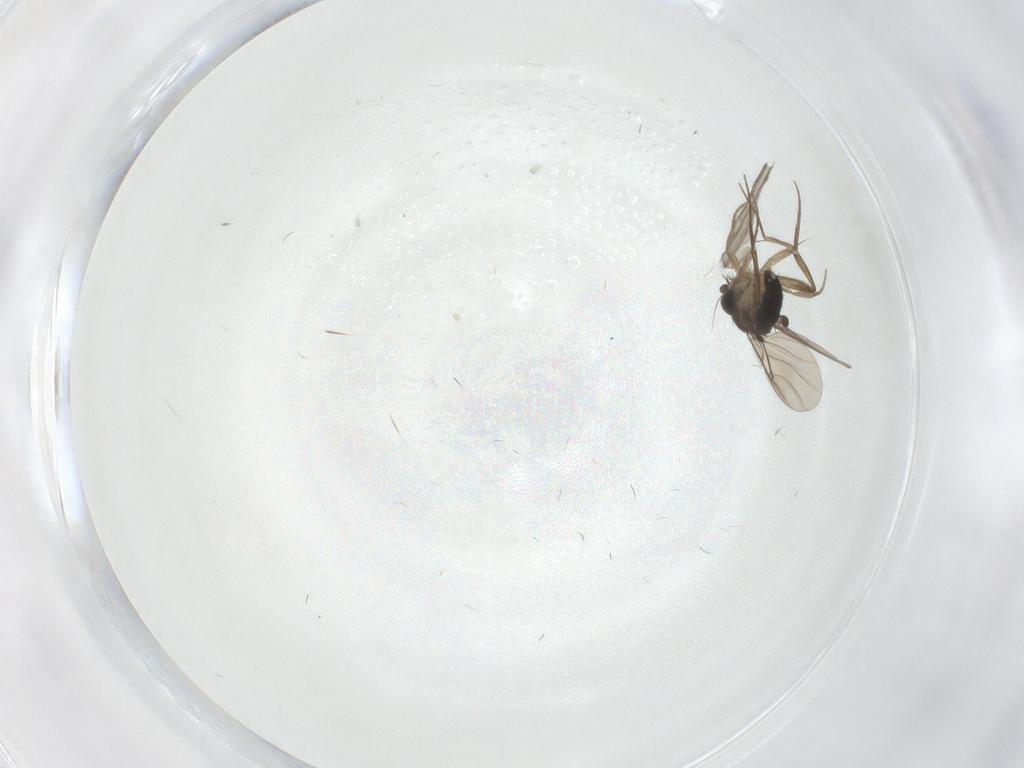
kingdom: Animalia
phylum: Arthropoda
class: Insecta
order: Diptera
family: Phoridae
